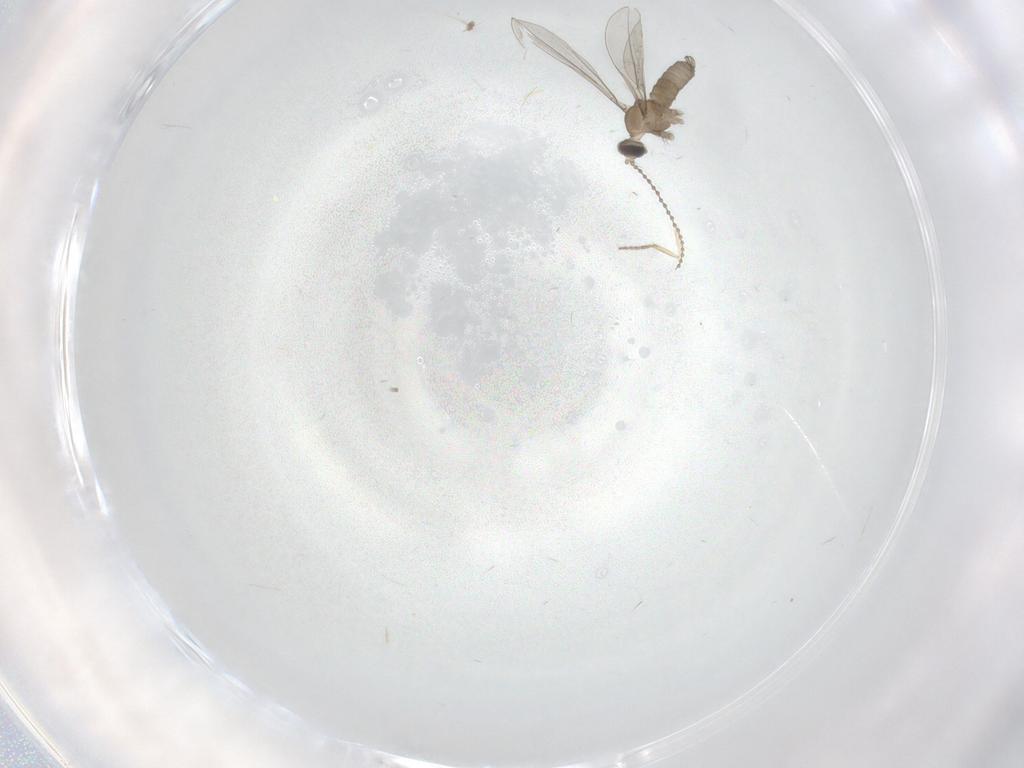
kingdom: Animalia
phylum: Arthropoda
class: Insecta
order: Diptera
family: Cecidomyiidae
